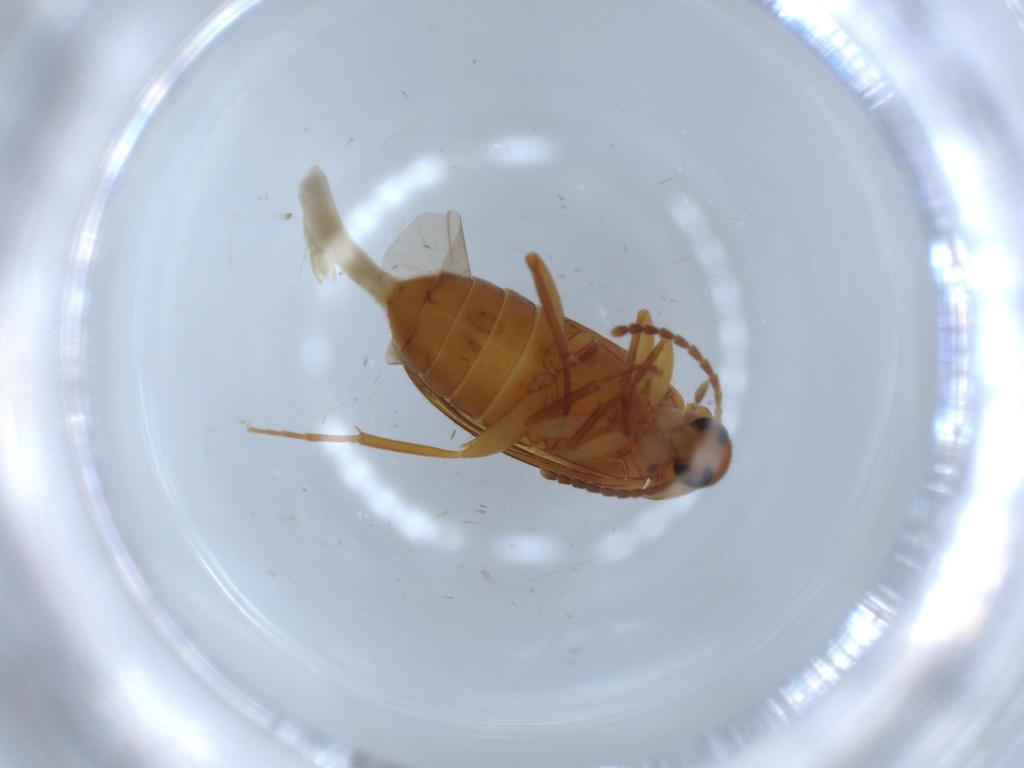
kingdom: Animalia
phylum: Arthropoda
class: Insecta
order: Coleoptera
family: Scraptiidae
